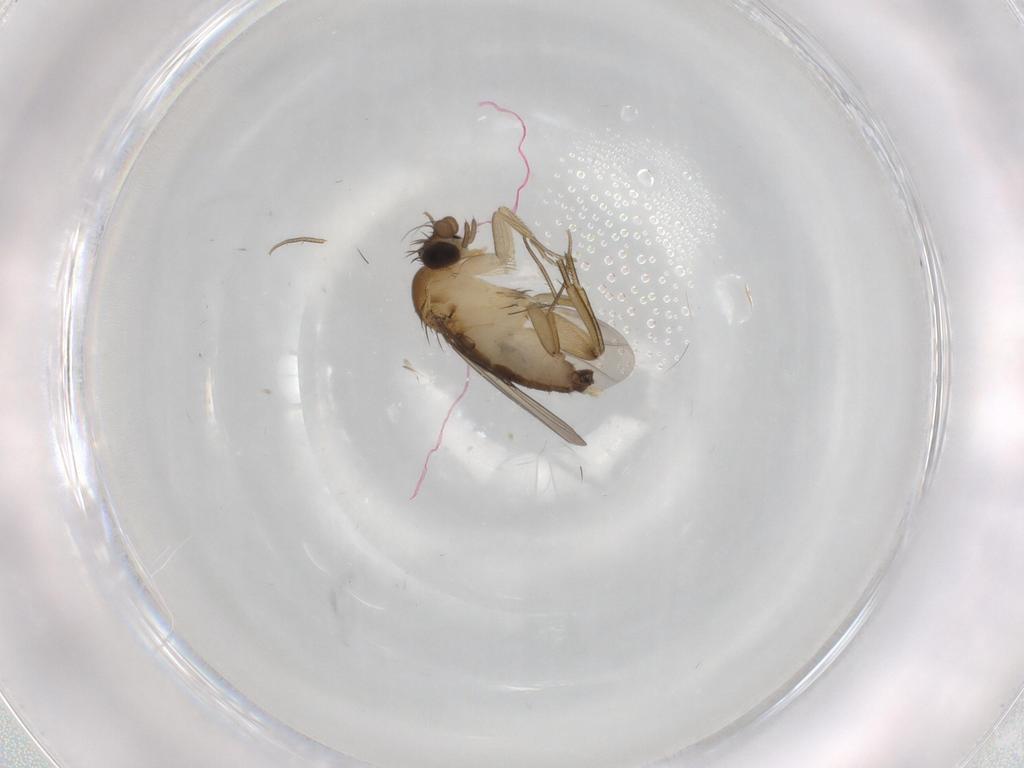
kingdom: Animalia
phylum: Arthropoda
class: Insecta
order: Diptera
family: Phoridae
